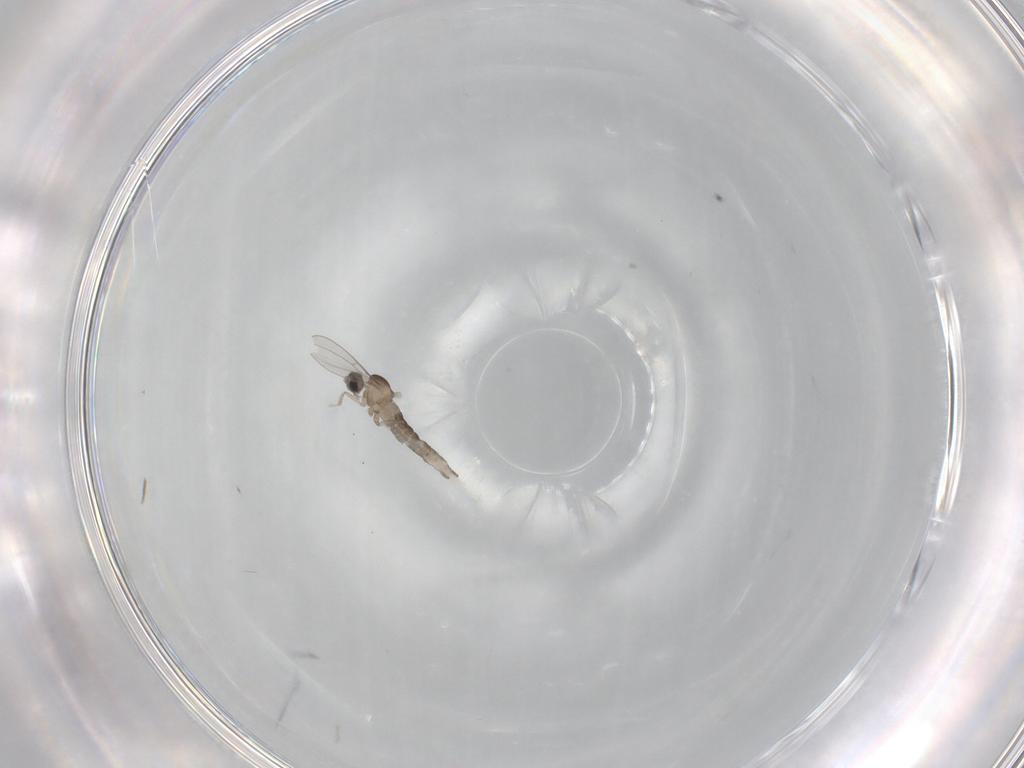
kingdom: Animalia
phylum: Arthropoda
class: Insecta
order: Diptera
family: Cecidomyiidae
